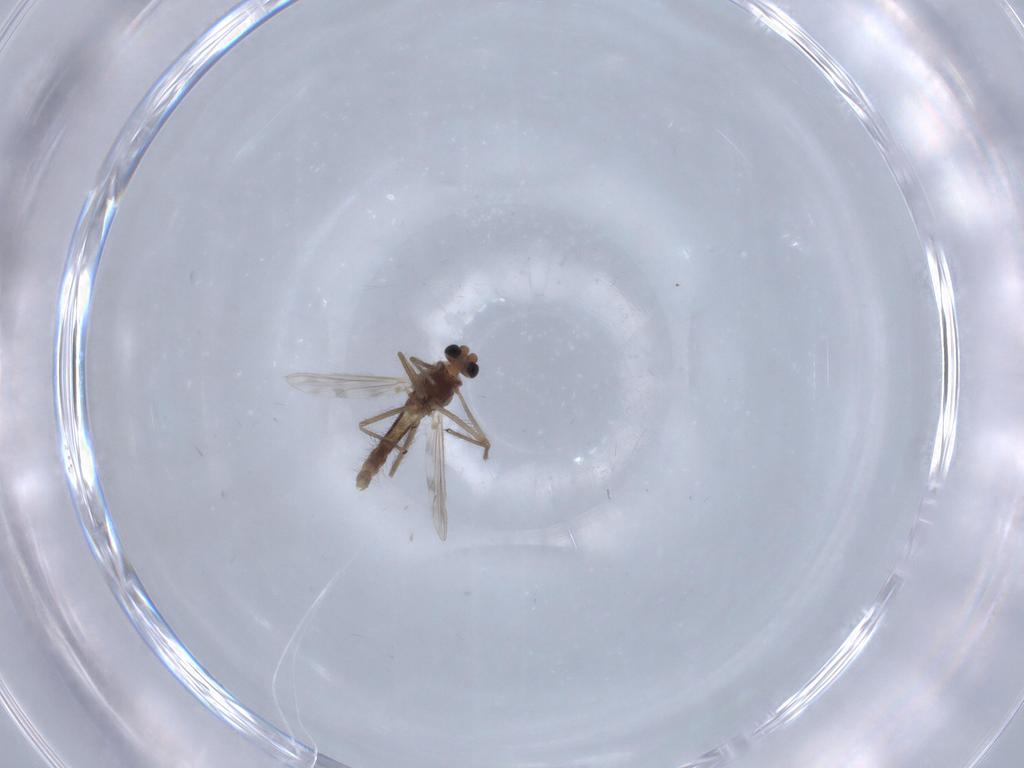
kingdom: Animalia
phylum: Arthropoda
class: Insecta
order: Diptera
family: Chironomidae
